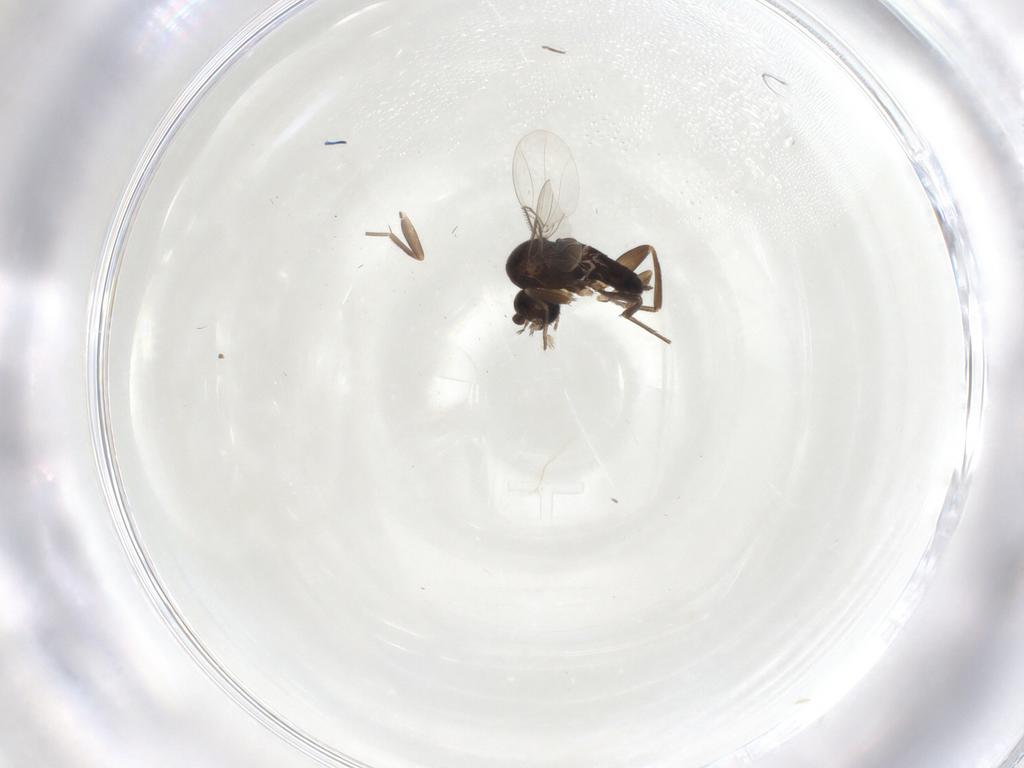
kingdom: Animalia
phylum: Arthropoda
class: Insecta
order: Diptera
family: Phoridae
